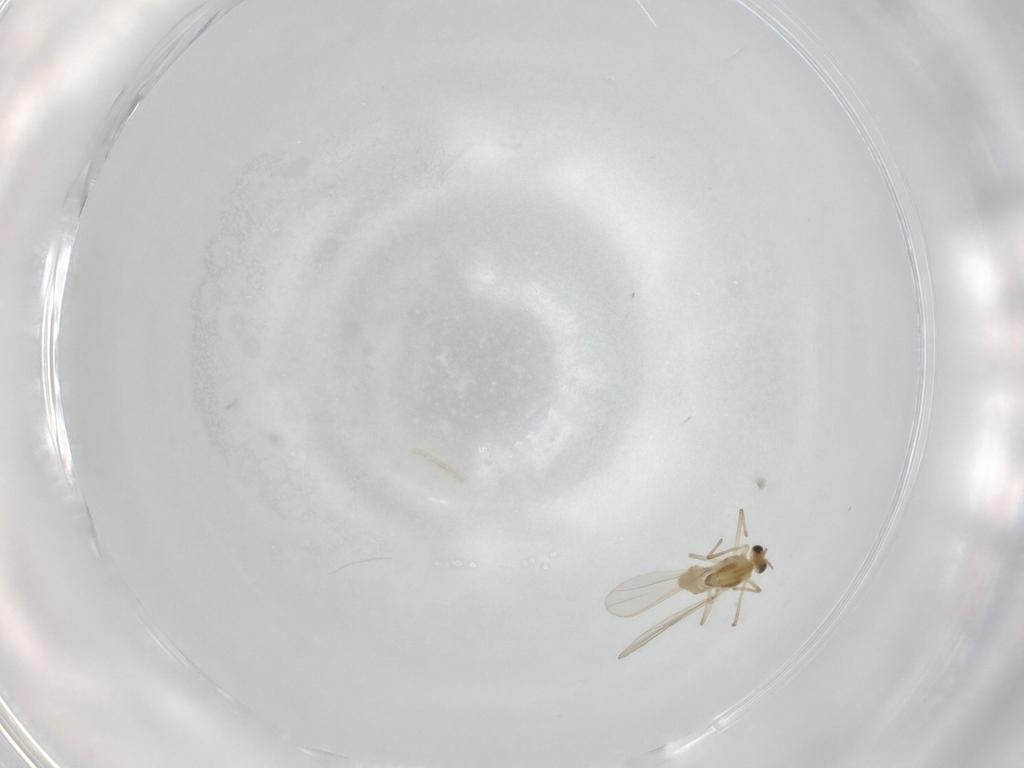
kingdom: Animalia
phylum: Arthropoda
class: Insecta
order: Diptera
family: Chironomidae
